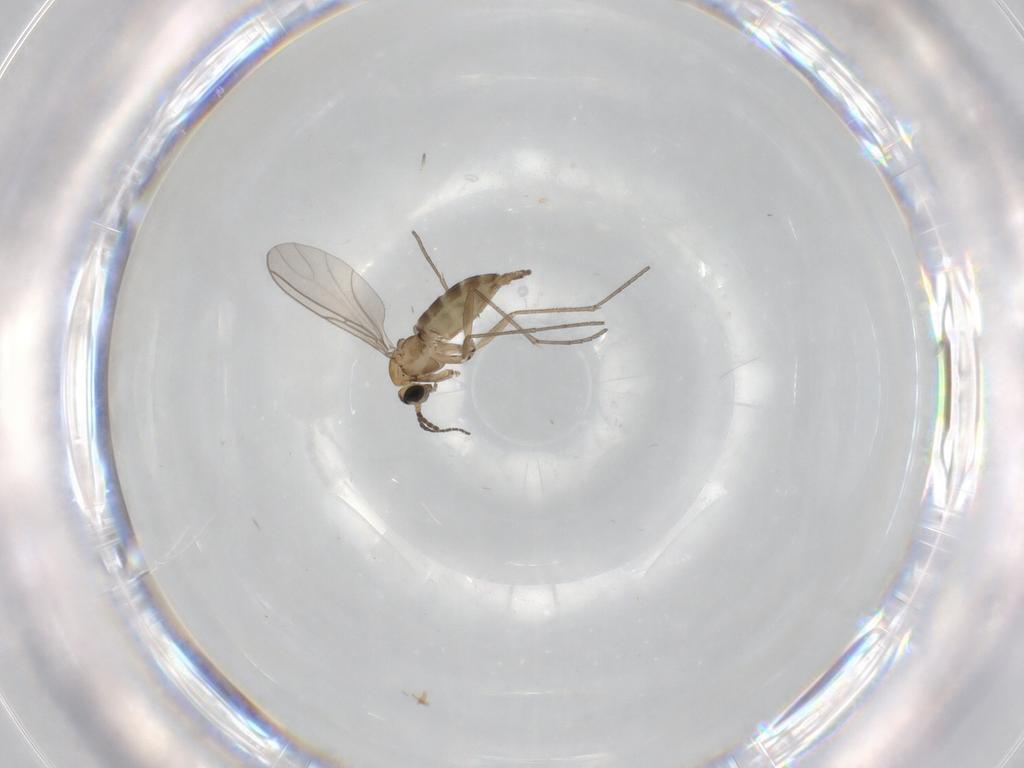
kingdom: Animalia
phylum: Arthropoda
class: Insecta
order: Diptera
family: Sciaridae
